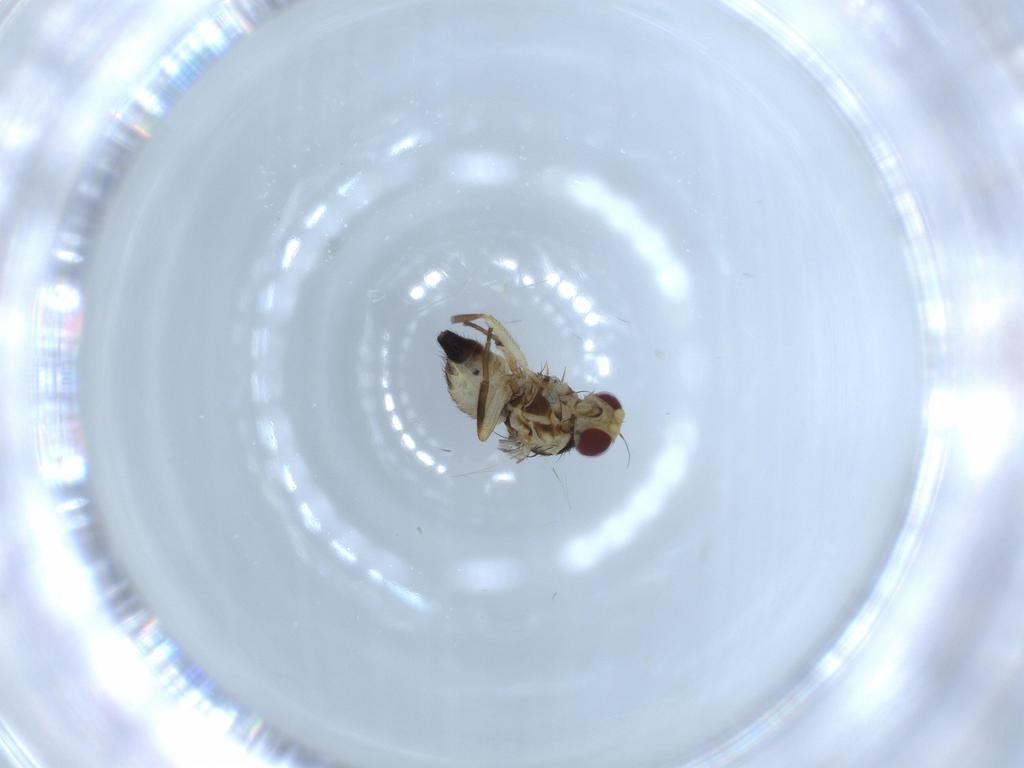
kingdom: Animalia
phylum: Arthropoda
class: Insecta
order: Diptera
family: Agromyzidae
